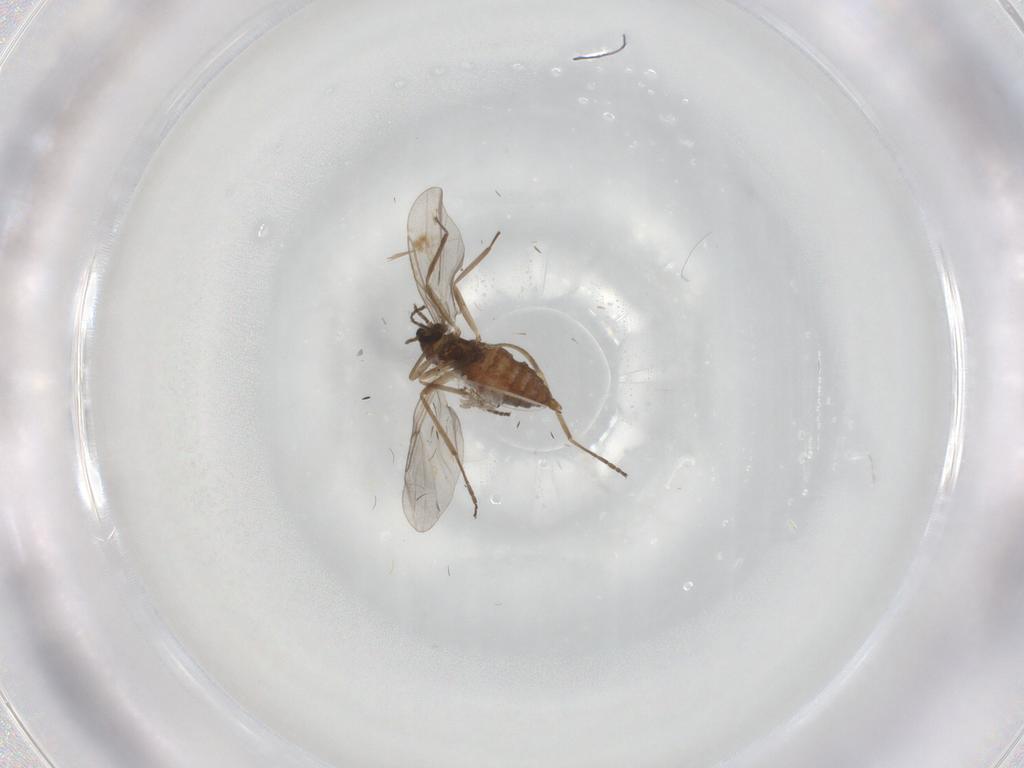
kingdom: Animalia
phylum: Arthropoda
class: Insecta
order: Diptera
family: Cecidomyiidae
